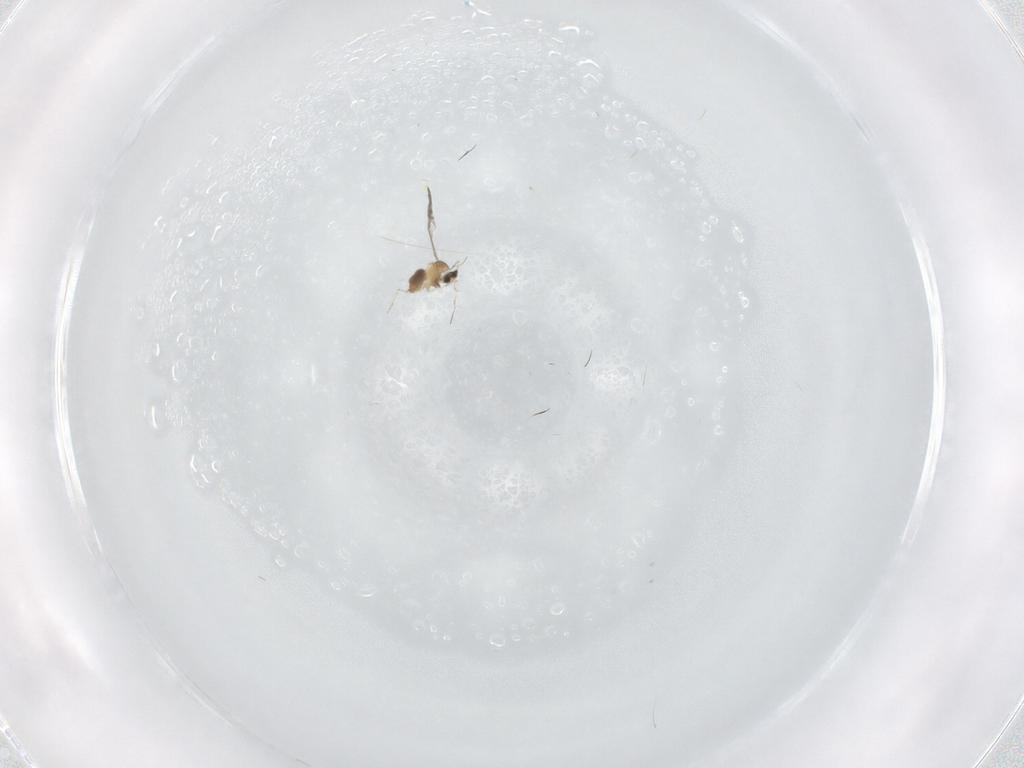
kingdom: Animalia
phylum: Arthropoda
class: Insecta
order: Diptera
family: Cecidomyiidae
